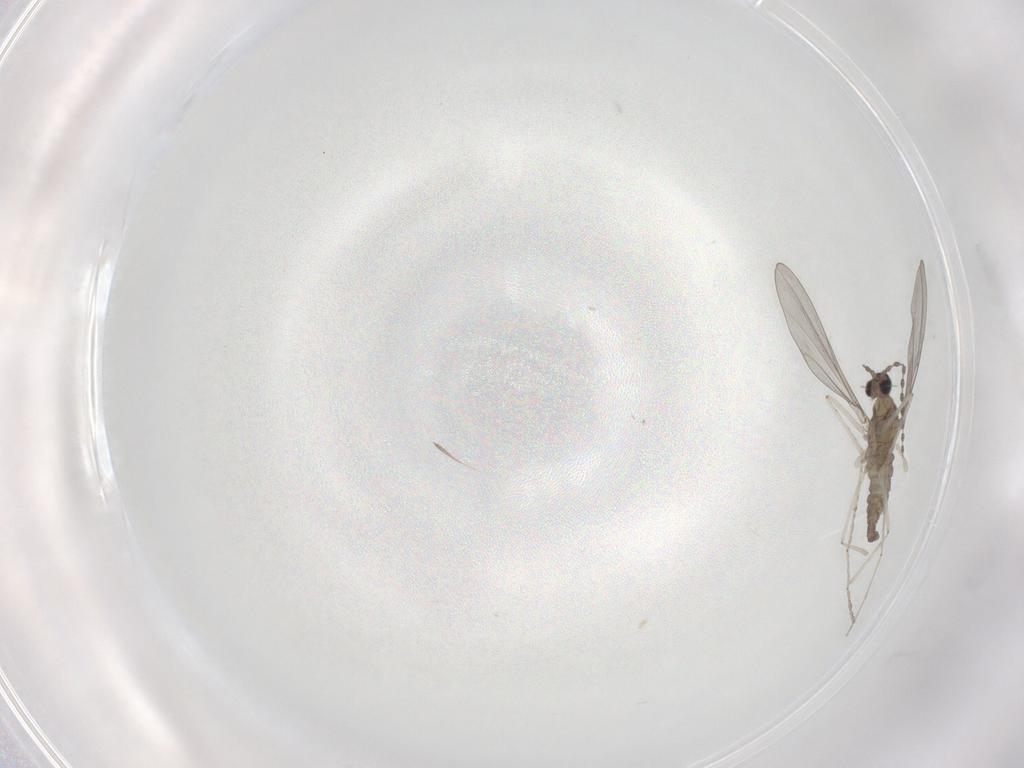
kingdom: Animalia
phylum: Arthropoda
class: Insecta
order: Diptera
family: Cecidomyiidae
